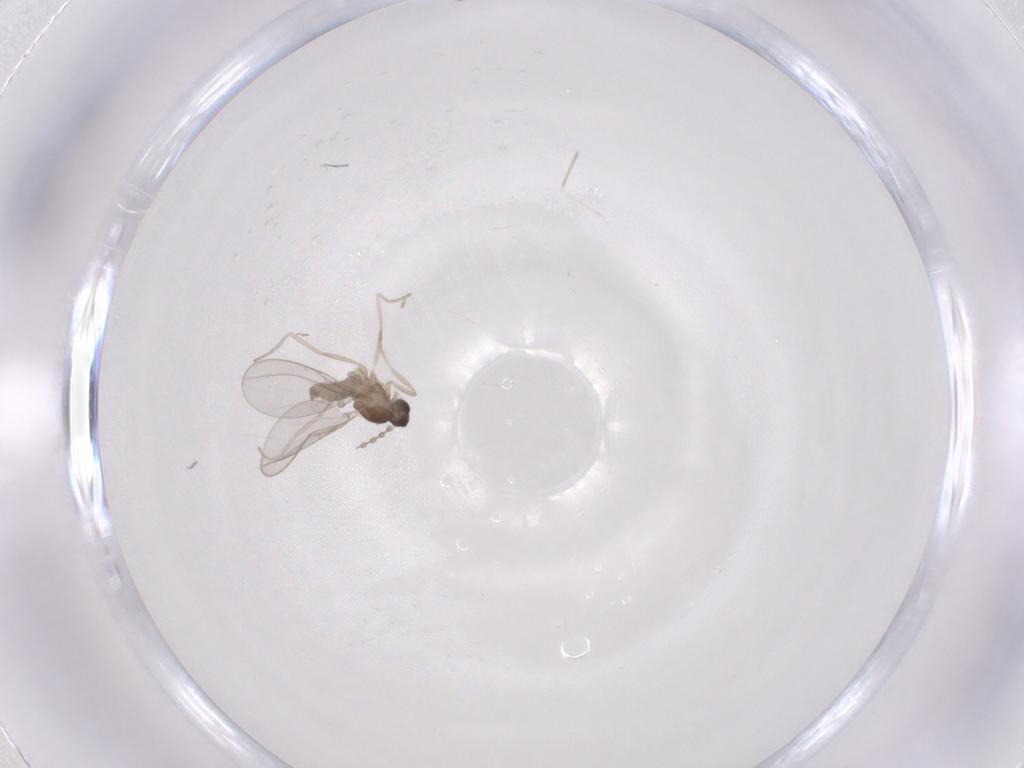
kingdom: Animalia
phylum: Arthropoda
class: Insecta
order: Diptera
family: Cecidomyiidae
